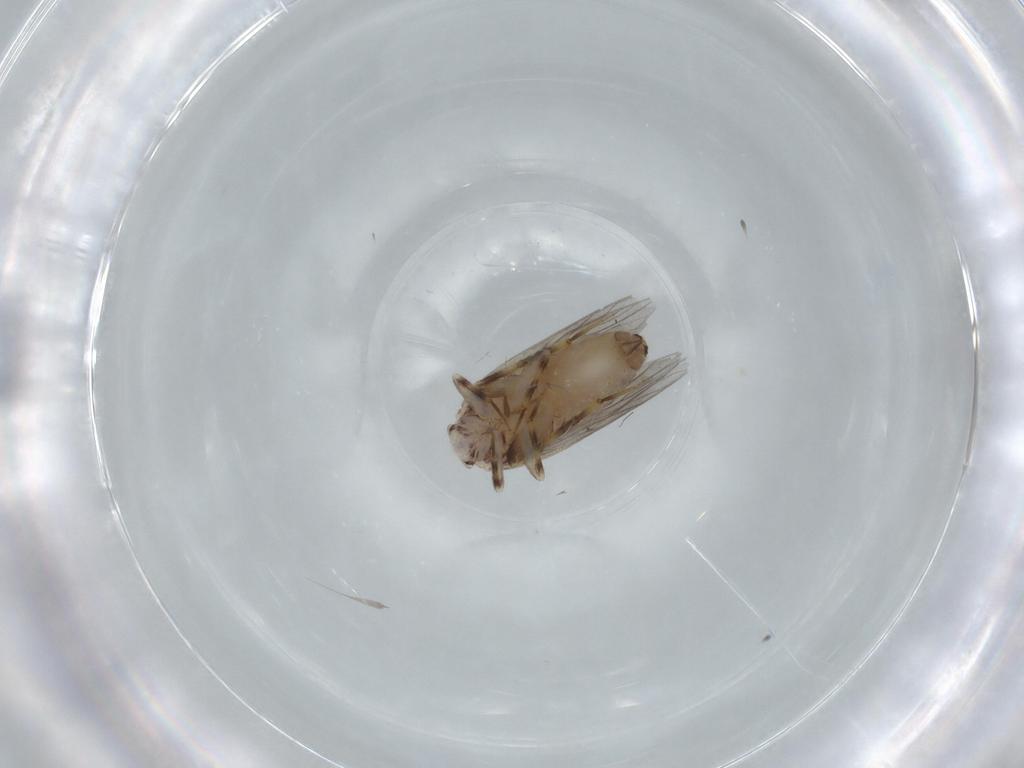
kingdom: Animalia
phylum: Arthropoda
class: Insecta
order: Psocodea
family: Lepidopsocidae
